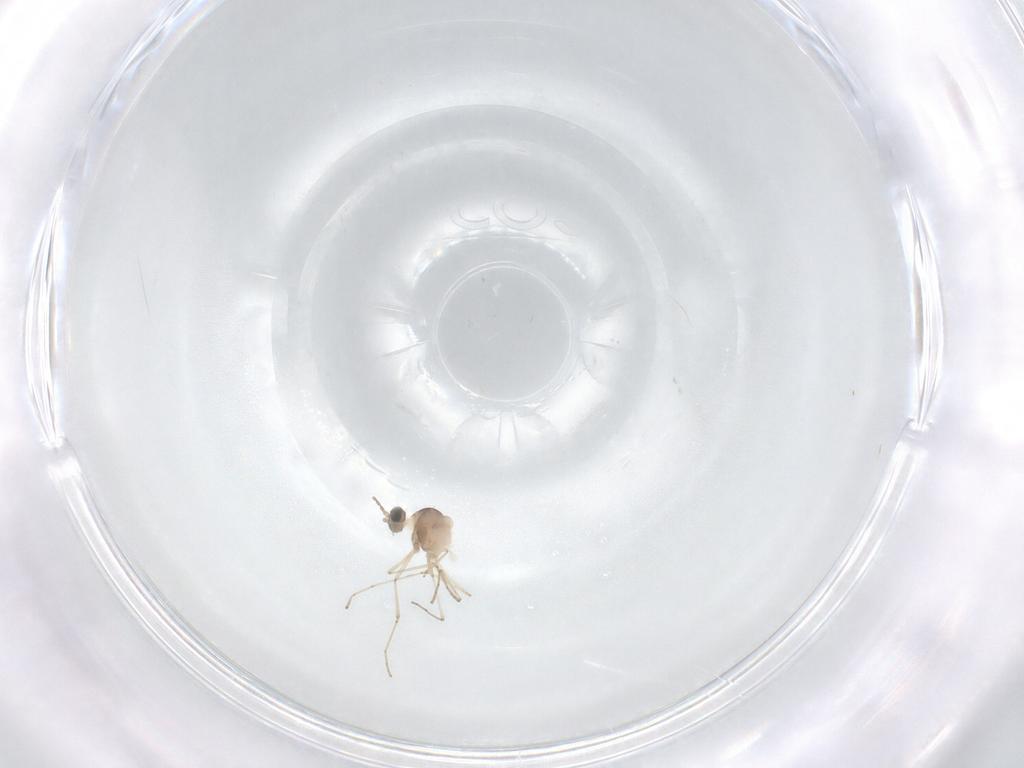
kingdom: Animalia
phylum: Arthropoda
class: Insecta
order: Diptera
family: Cecidomyiidae
